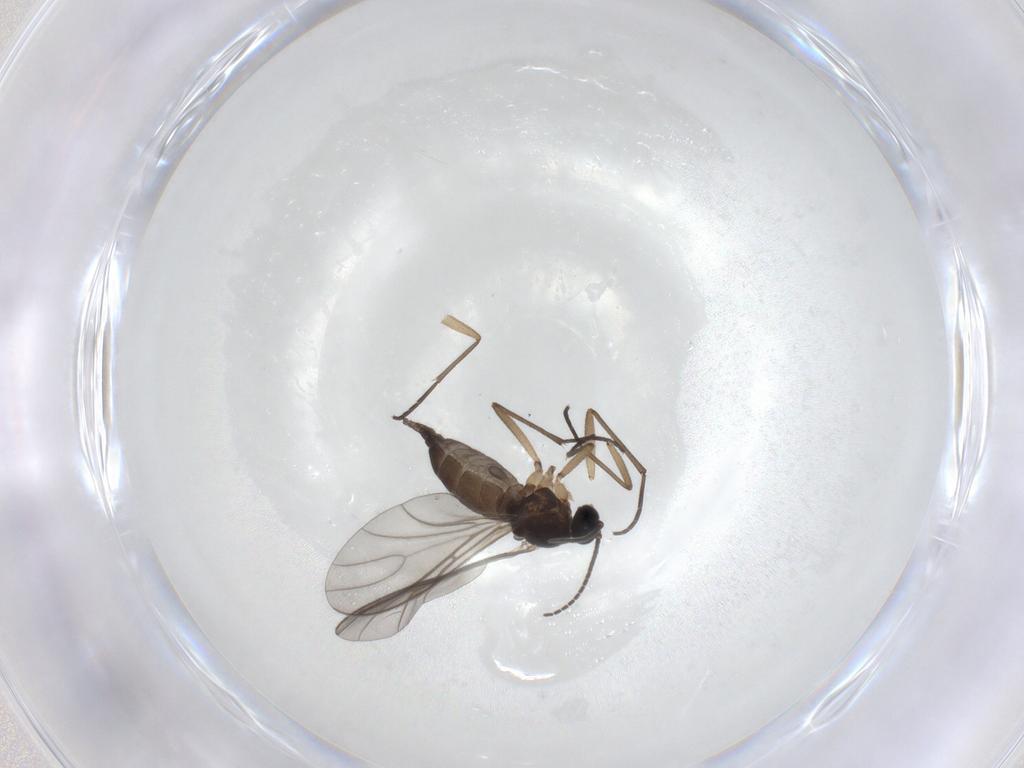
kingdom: Animalia
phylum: Arthropoda
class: Insecta
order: Diptera
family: Sciaridae
